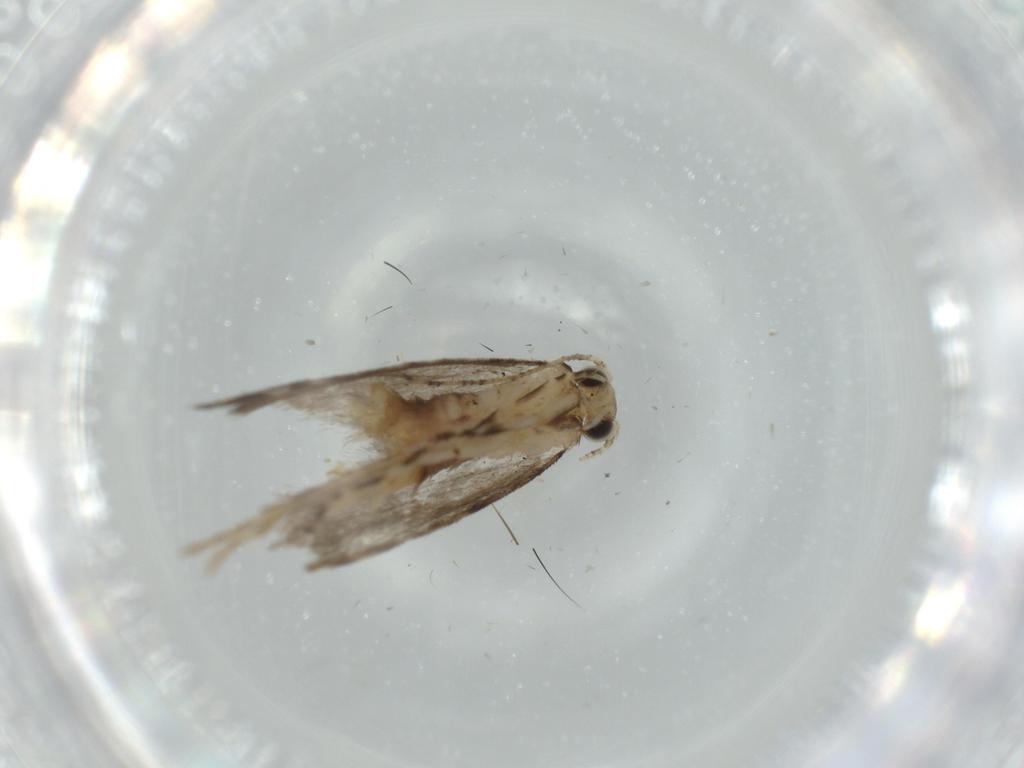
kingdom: Animalia
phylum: Arthropoda
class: Insecta
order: Lepidoptera
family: Tineidae
